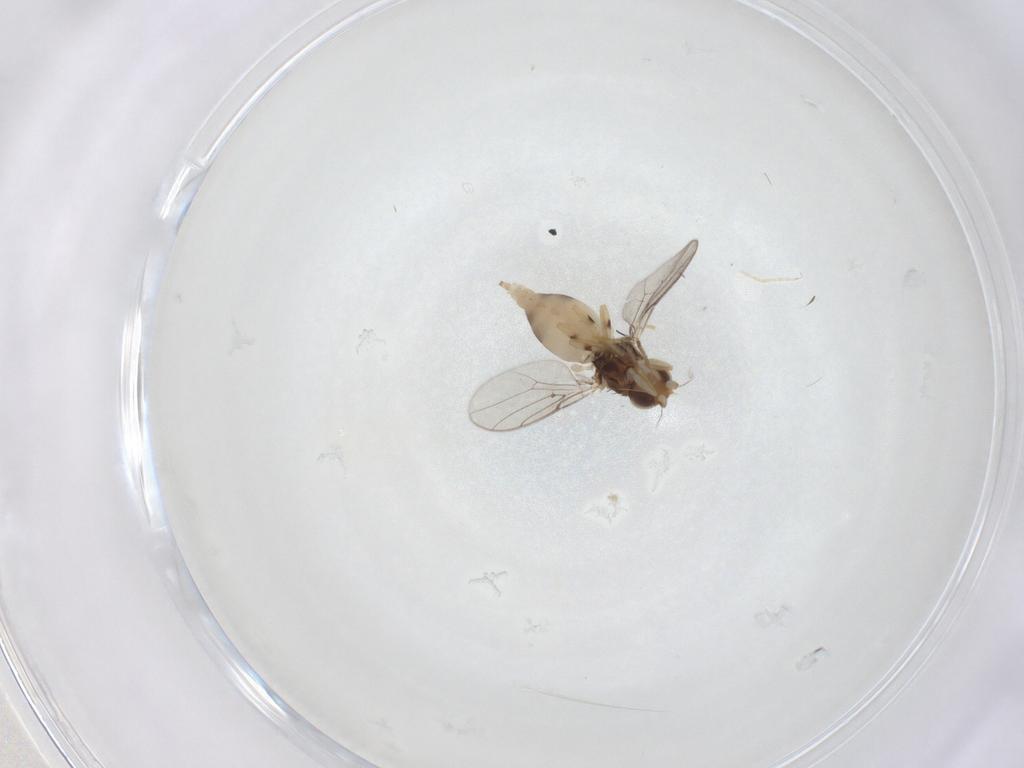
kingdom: Animalia
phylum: Arthropoda
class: Insecta
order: Diptera
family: Chloropidae
